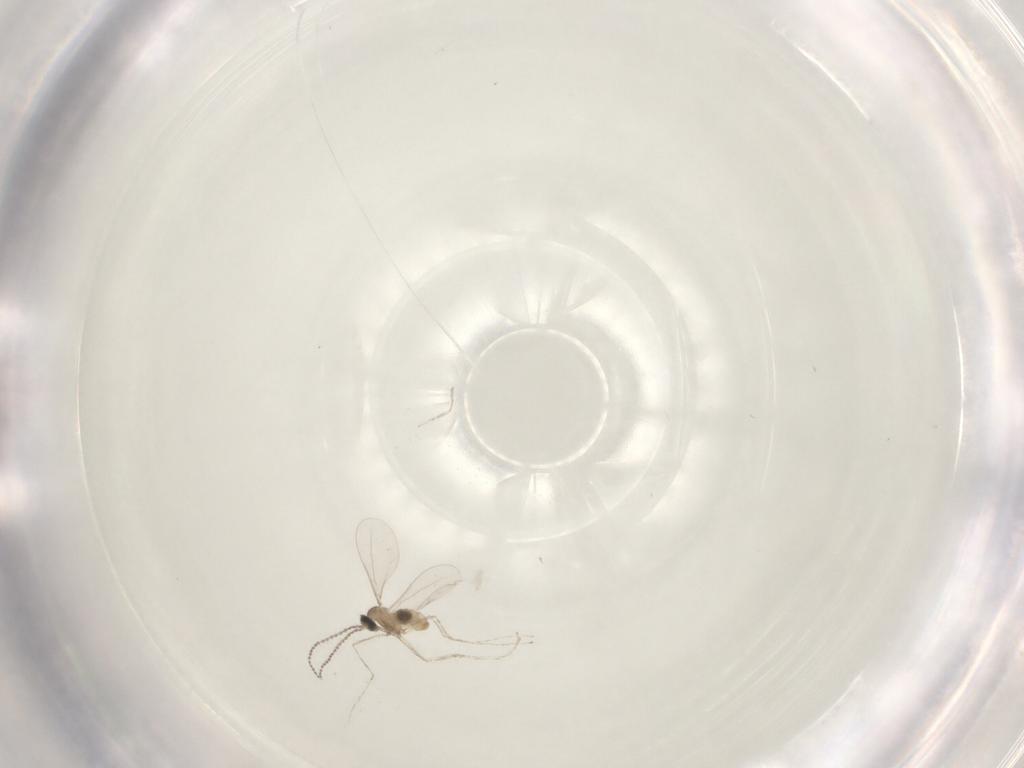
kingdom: Animalia
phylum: Arthropoda
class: Insecta
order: Diptera
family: Cecidomyiidae
